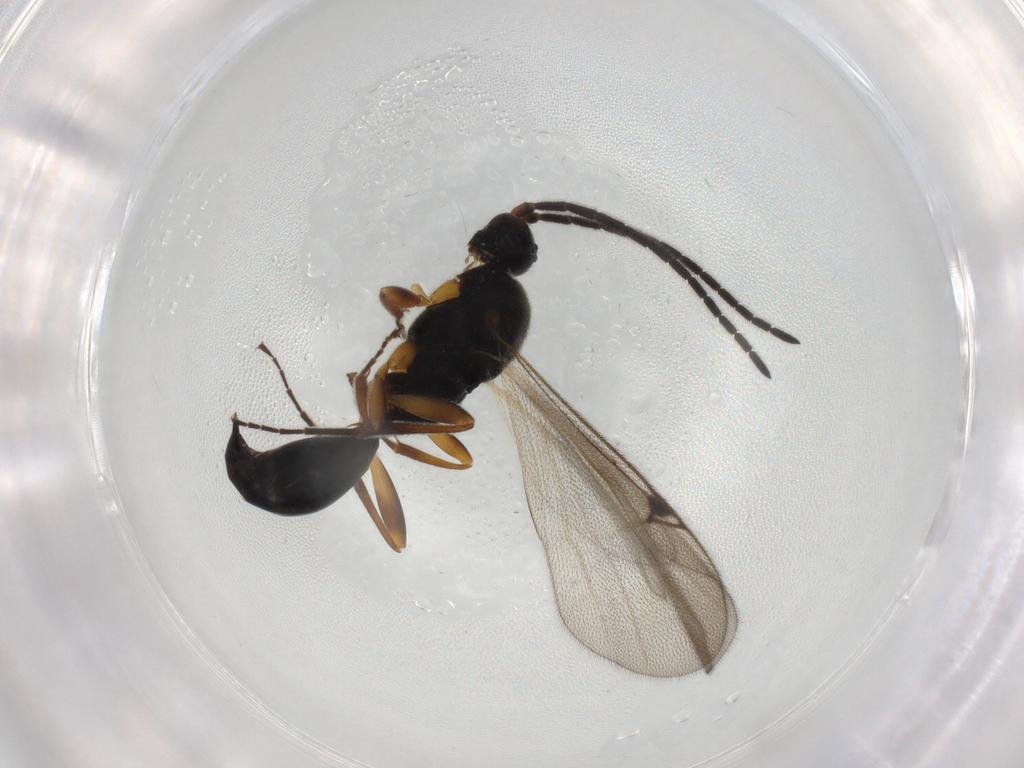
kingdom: Animalia
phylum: Arthropoda
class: Insecta
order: Hymenoptera
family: Proctotrupidae
